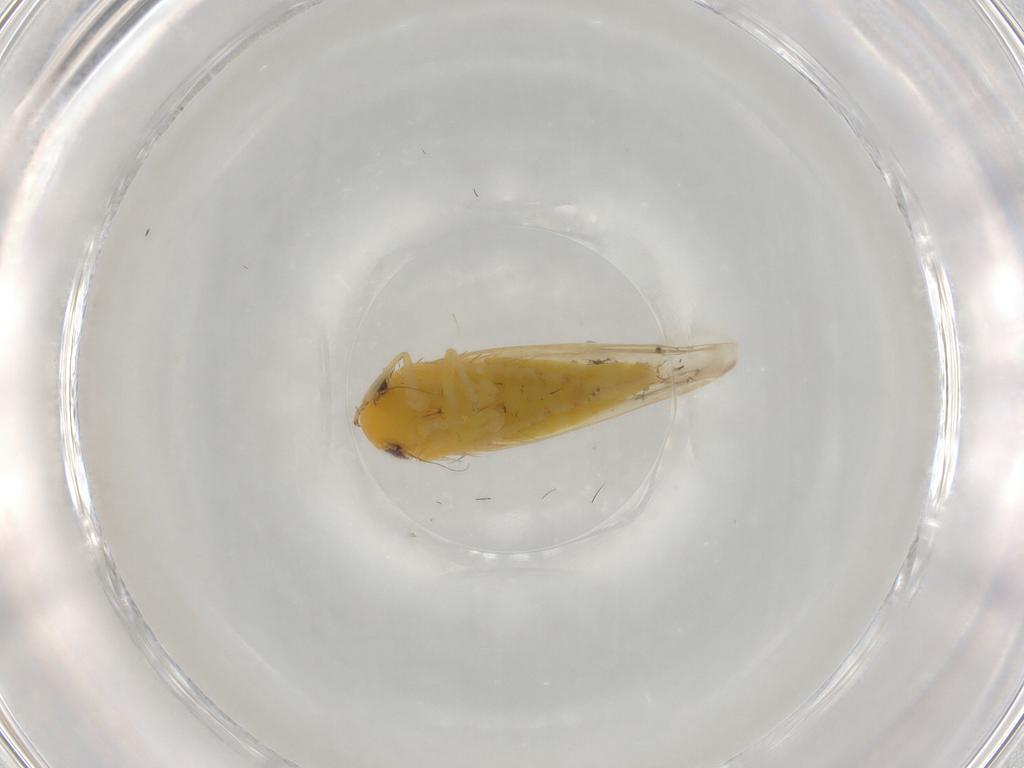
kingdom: Animalia
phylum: Arthropoda
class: Insecta
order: Hemiptera
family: Cicadellidae
